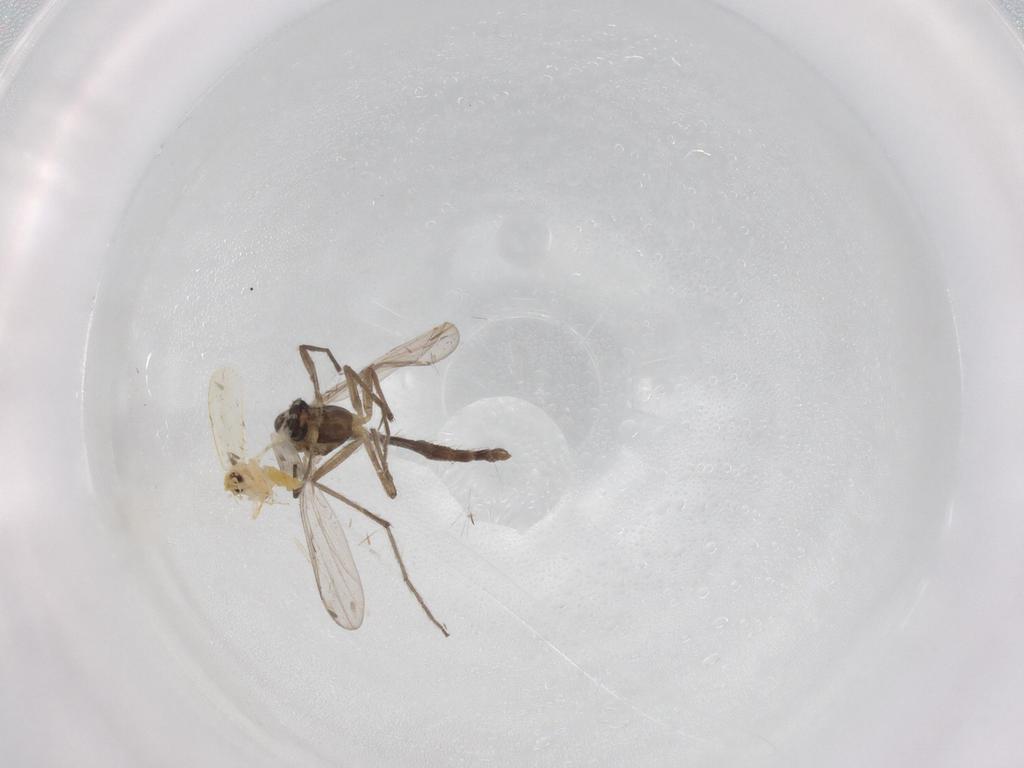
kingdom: Animalia
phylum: Arthropoda
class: Insecta
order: Diptera
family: Chironomidae
